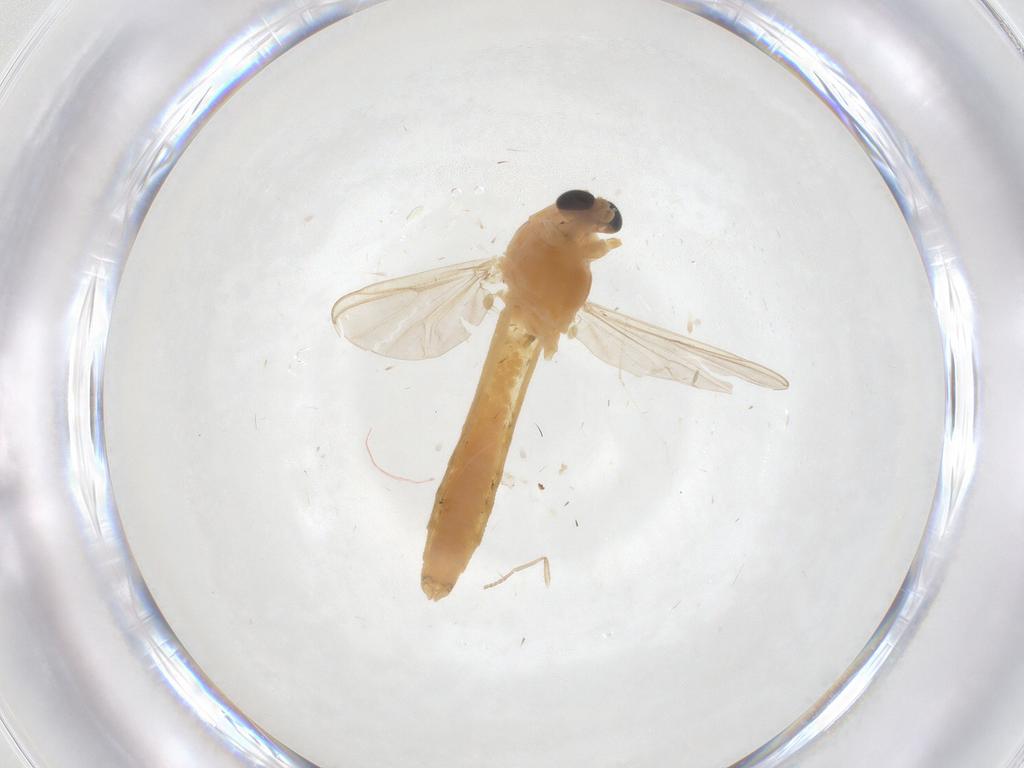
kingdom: Animalia
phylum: Arthropoda
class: Insecta
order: Diptera
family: Chironomidae
